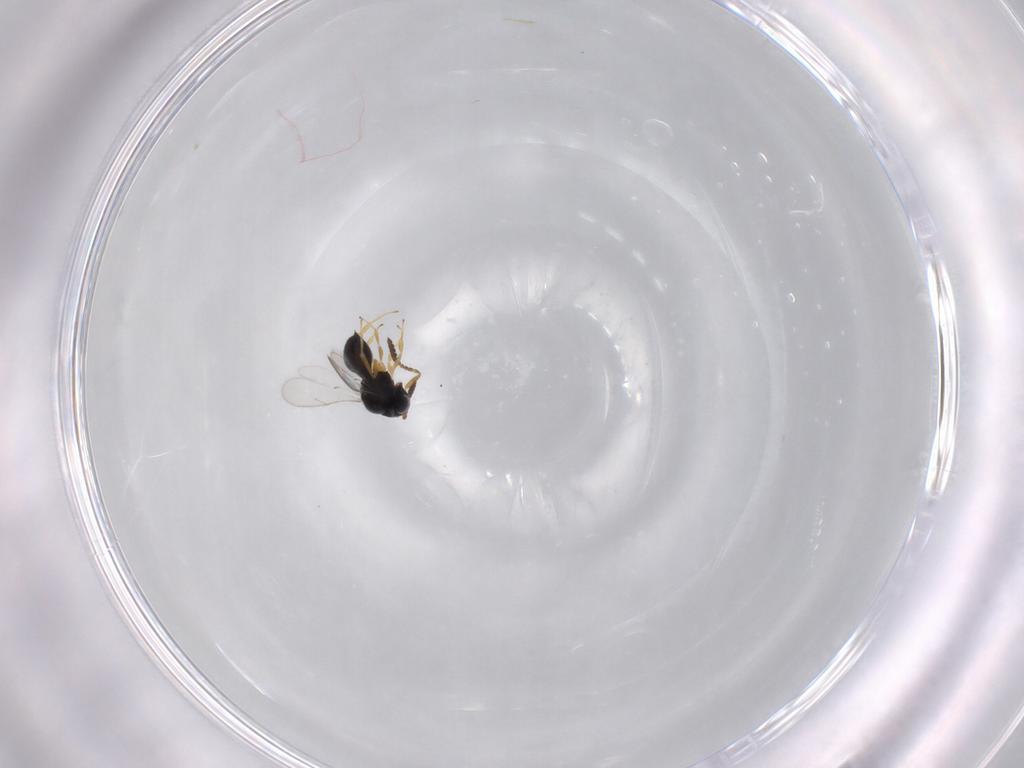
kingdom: Animalia
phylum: Arthropoda
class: Insecta
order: Hymenoptera
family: Scelionidae
